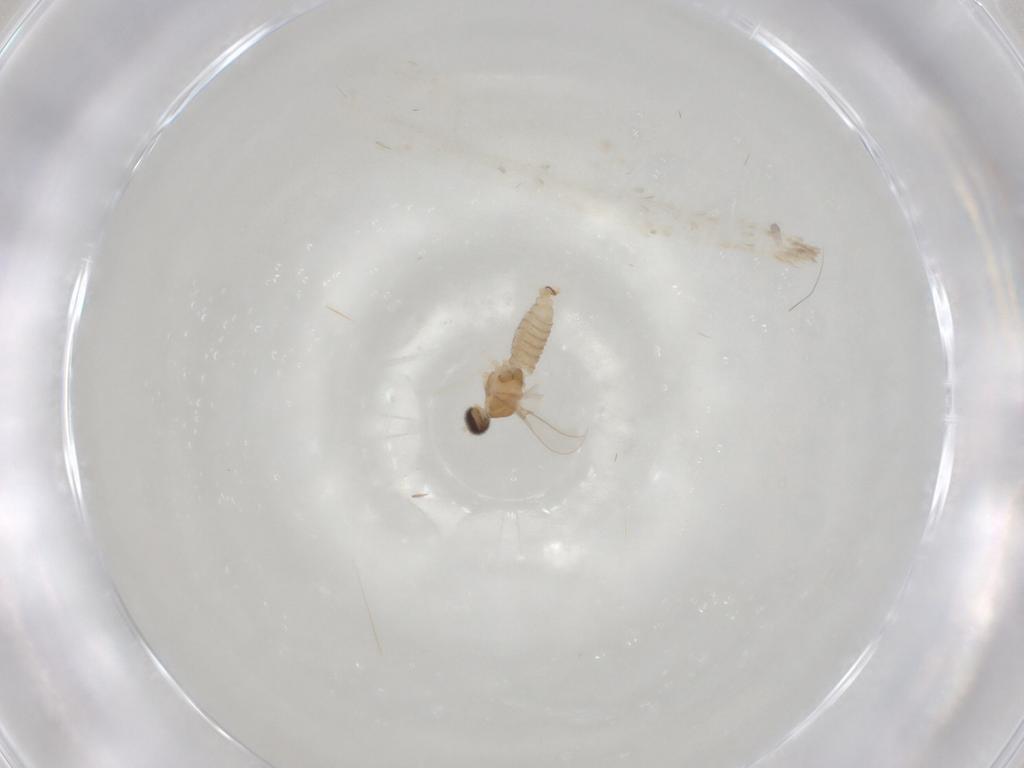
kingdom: Animalia
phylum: Arthropoda
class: Insecta
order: Diptera
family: Cecidomyiidae
